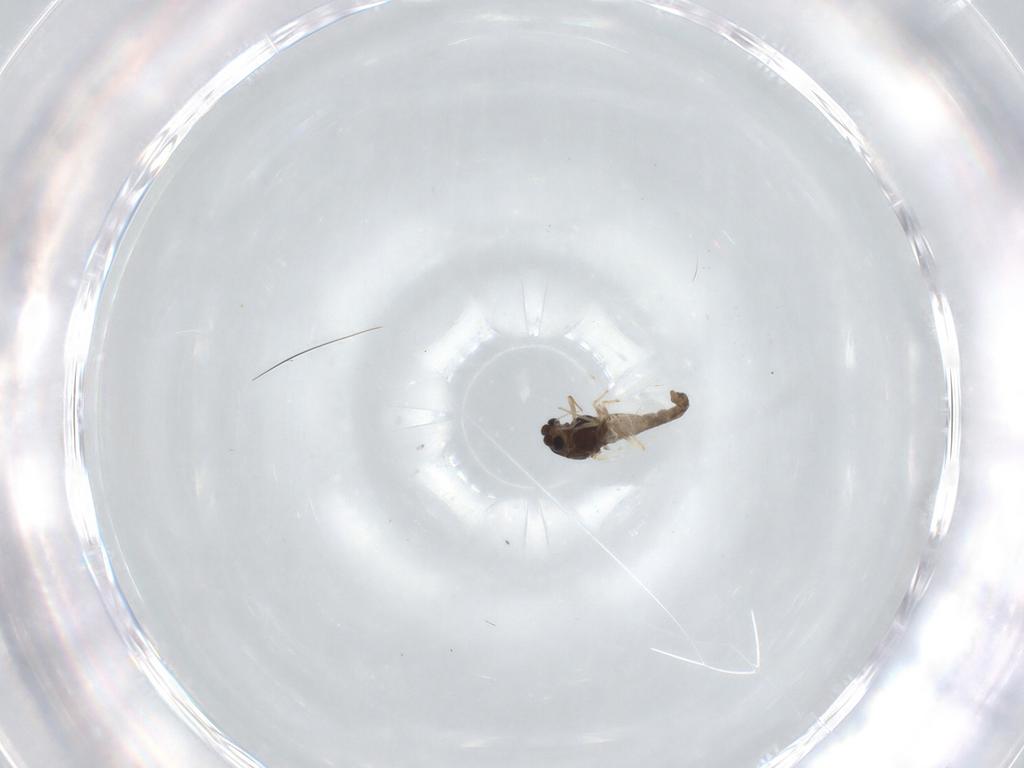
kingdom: Animalia
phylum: Arthropoda
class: Insecta
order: Diptera
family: Chironomidae
